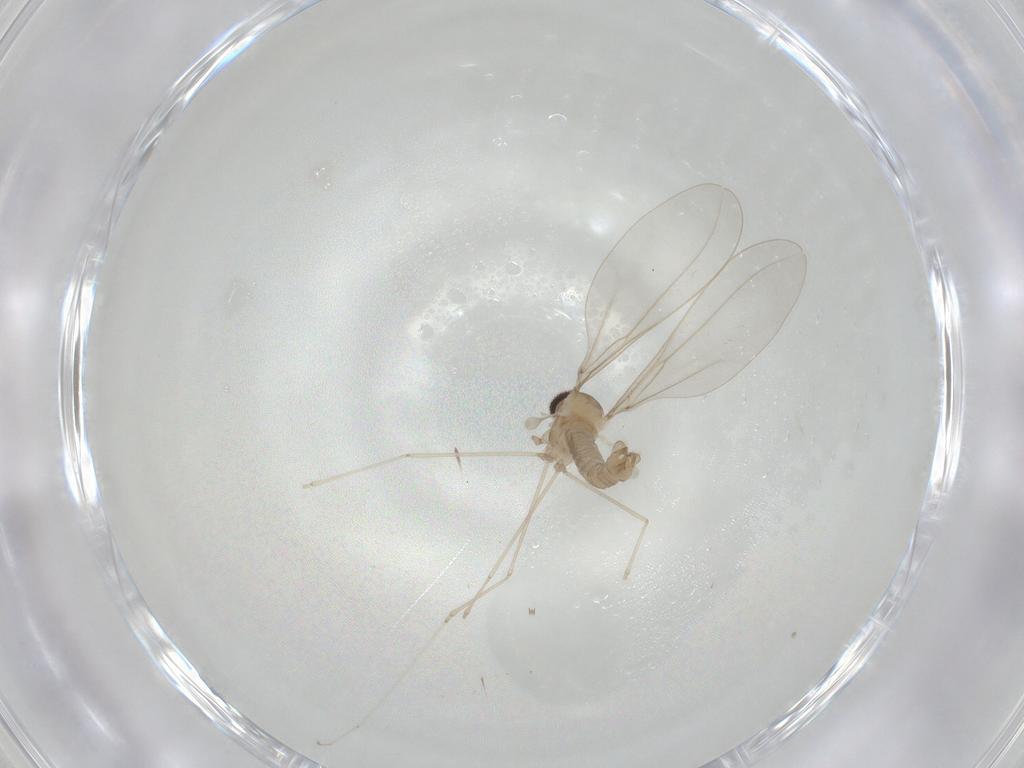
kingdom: Animalia
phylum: Arthropoda
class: Insecta
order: Diptera
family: Cecidomyiidae
